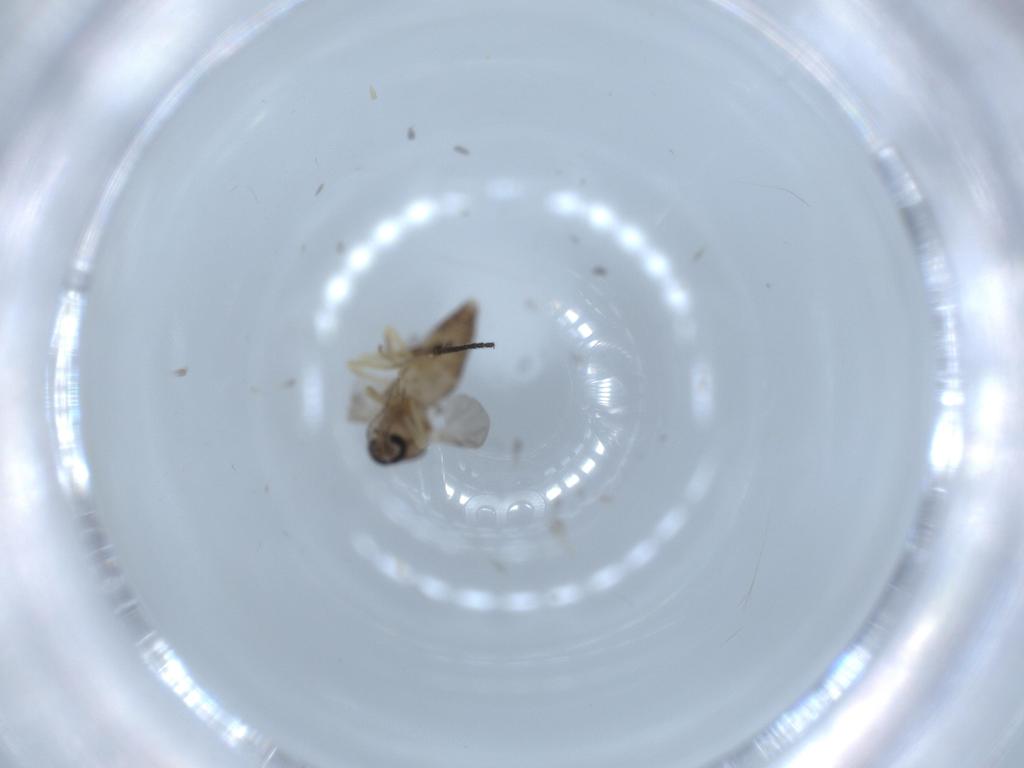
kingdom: Animalia
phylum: Arthropoda
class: Insecta
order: Diptera
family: Ceratopogonidae
